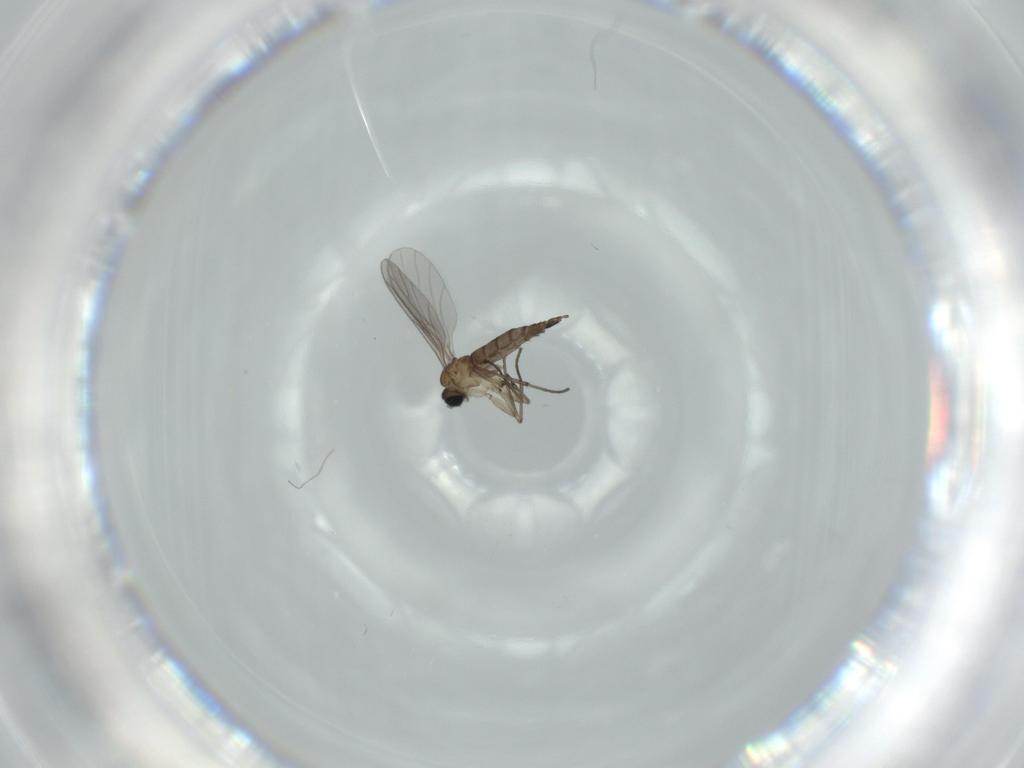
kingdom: Animalia
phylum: Arthropoda
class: Insecta
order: Diptera
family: Sciaridae
